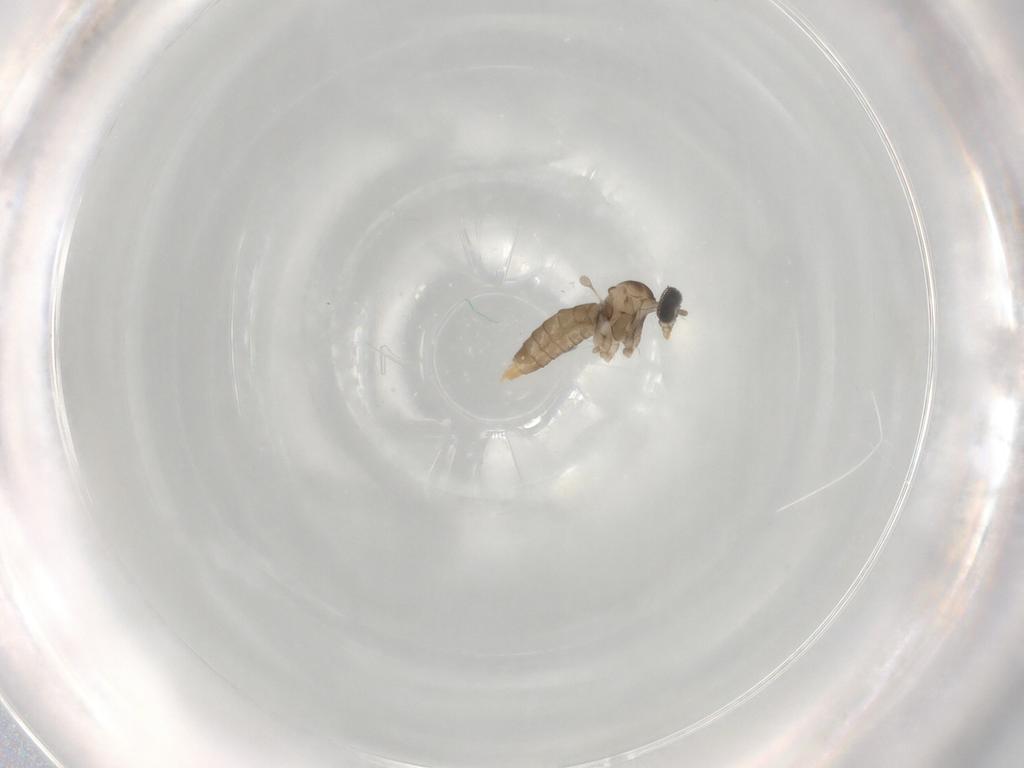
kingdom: Animalia
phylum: Arthropoda
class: Insecta
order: Diptera
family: Cecidomyiidae
